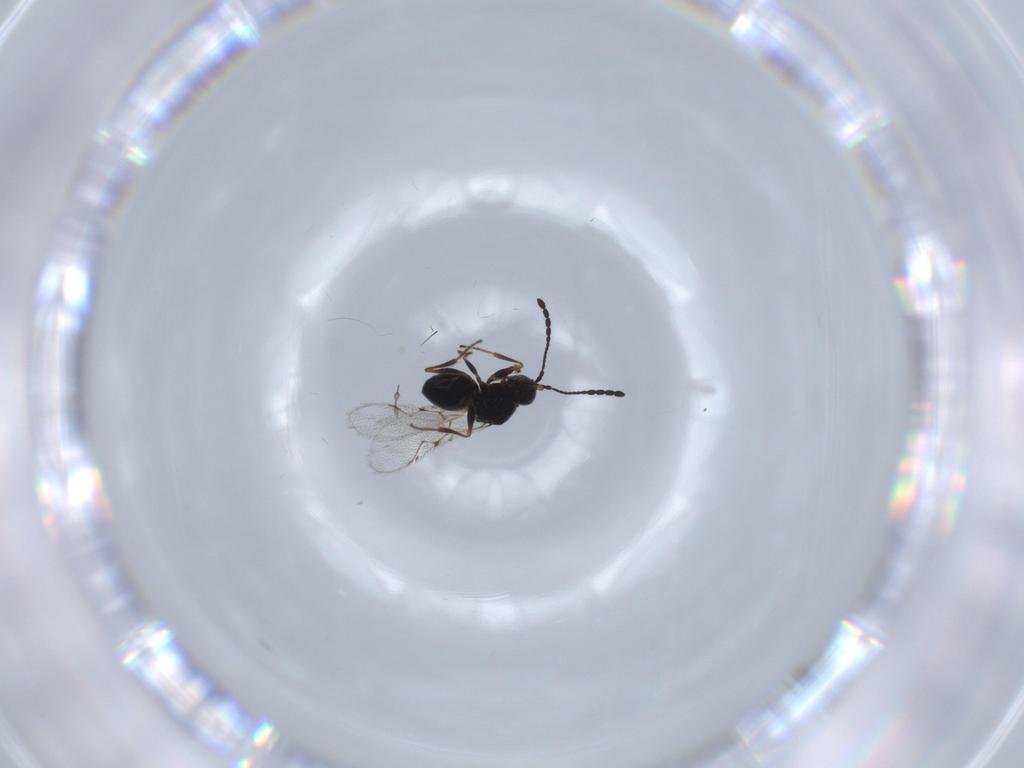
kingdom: Animalia
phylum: Arthropoda
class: Insecta
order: Hymenoptera
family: Figitidae
